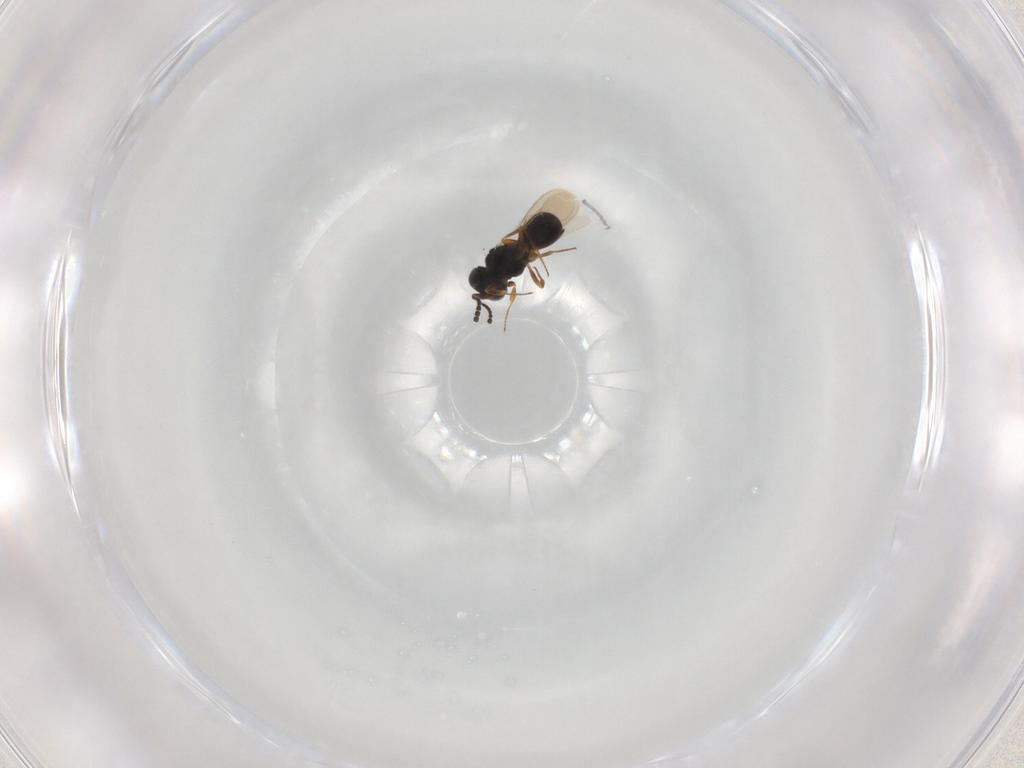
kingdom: Animalia
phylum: Arthropoda
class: Insecta
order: Hymenoptera
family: Scelionidae
